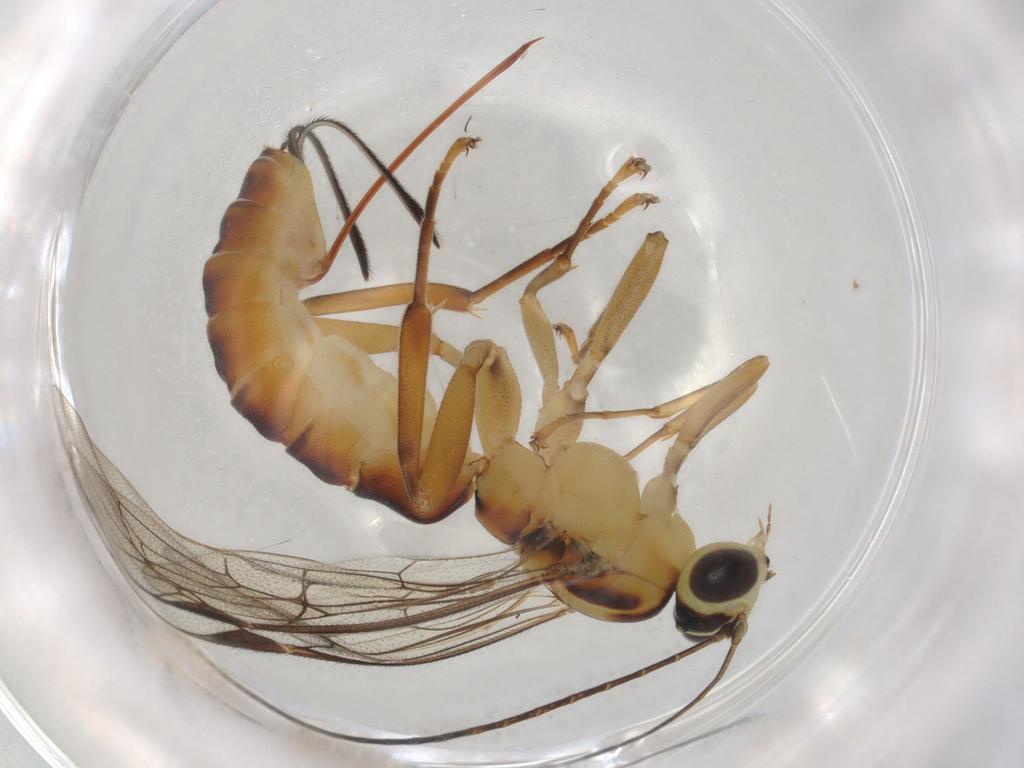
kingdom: Animalia
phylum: Arthropoda
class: Insecta
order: Hymenoptera
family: Mymaridae
